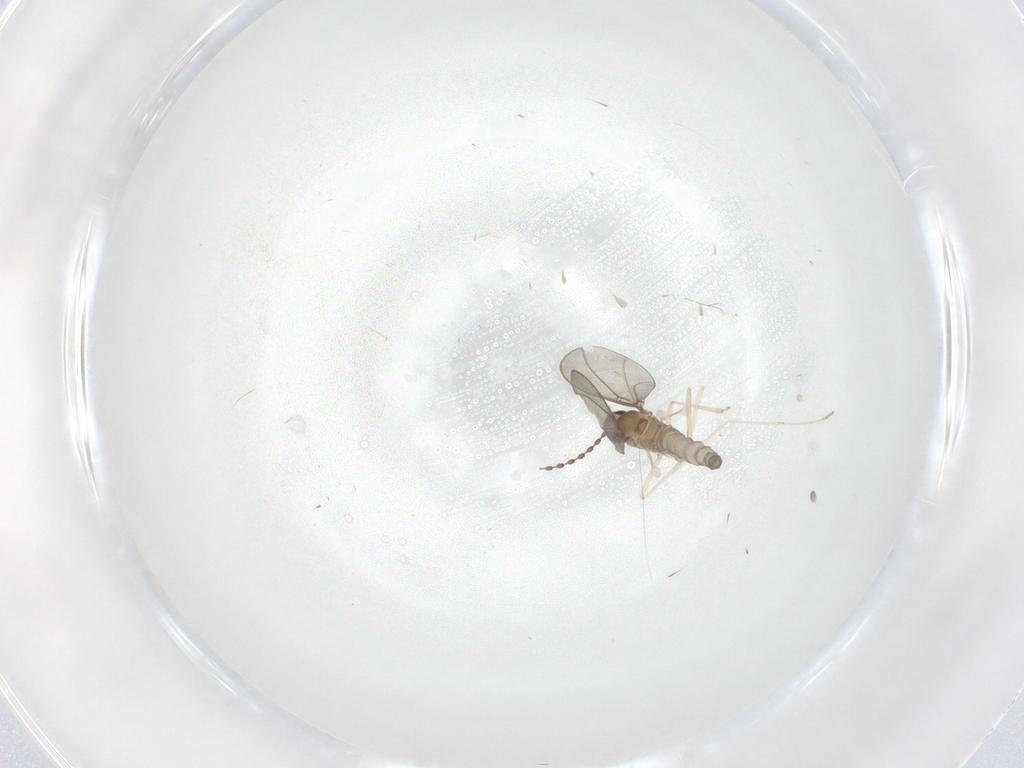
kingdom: Animalia
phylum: Arthropoda
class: Insecta
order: Diptera
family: Cecidomyiidae
